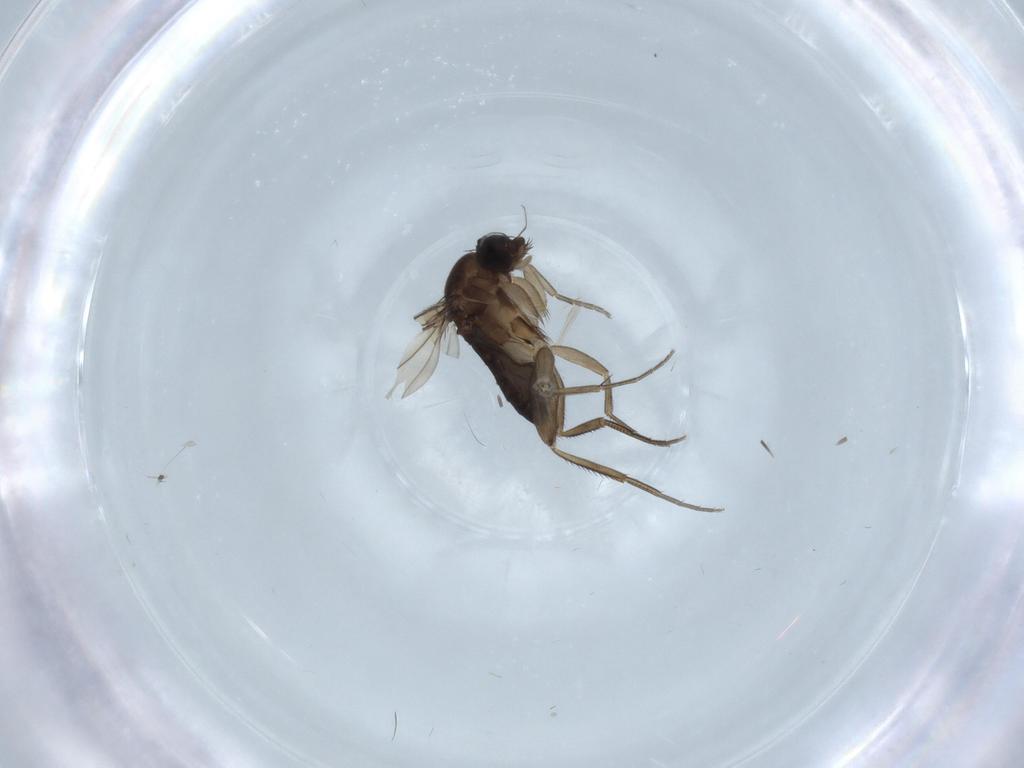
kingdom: Animalia
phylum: Arthropoda
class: Insecta
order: Diptera
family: Phoridae
